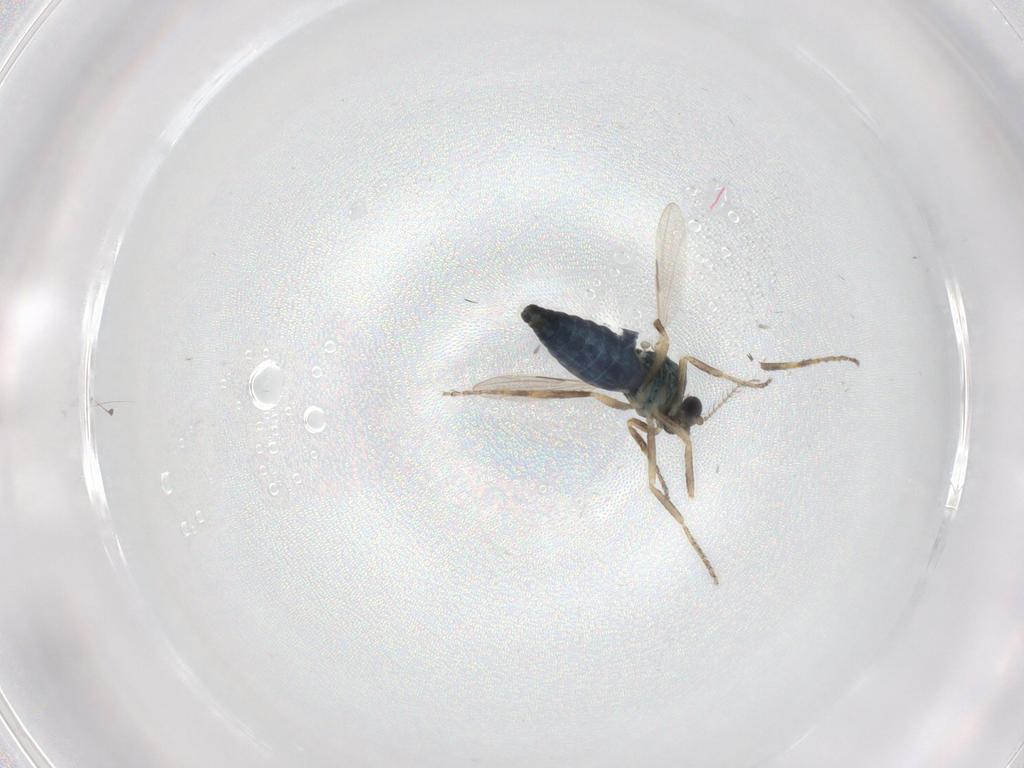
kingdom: Animalia
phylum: Arthropoda
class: Insecta
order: Diptera
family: Ceratopogonidae
